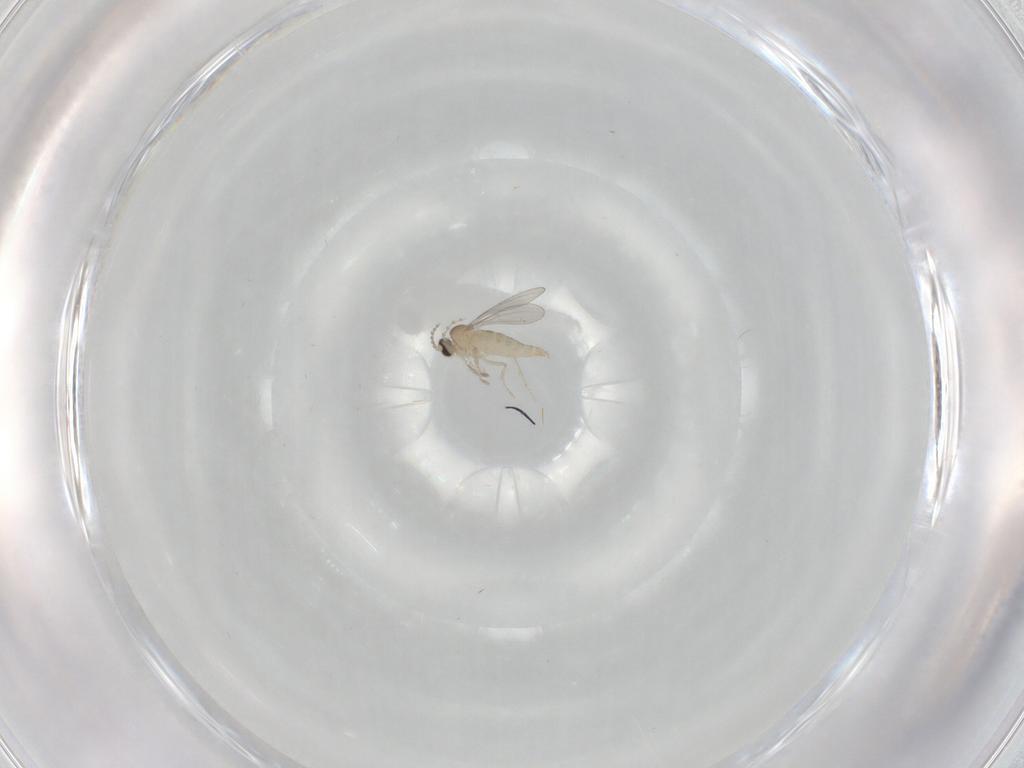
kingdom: Animalia
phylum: Arthropoda
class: Insecta
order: Diptera
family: Cecidomyiidae
